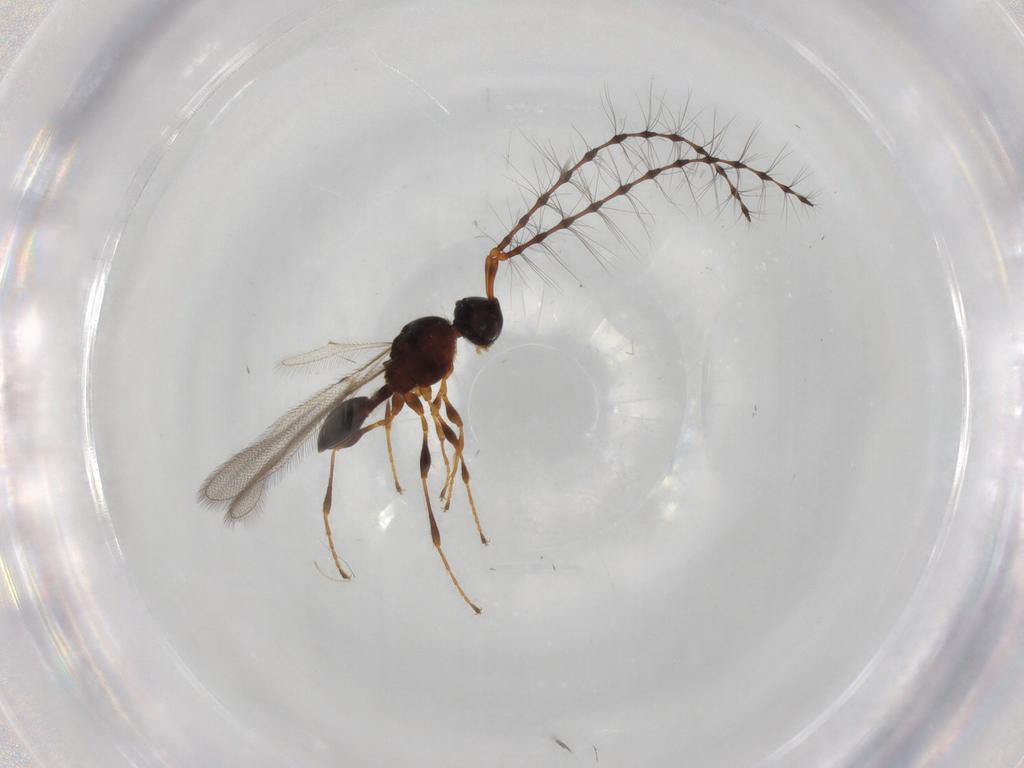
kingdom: Animalia
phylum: Arthropoda
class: Insecta
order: Hymenoptera
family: Diapriidae
